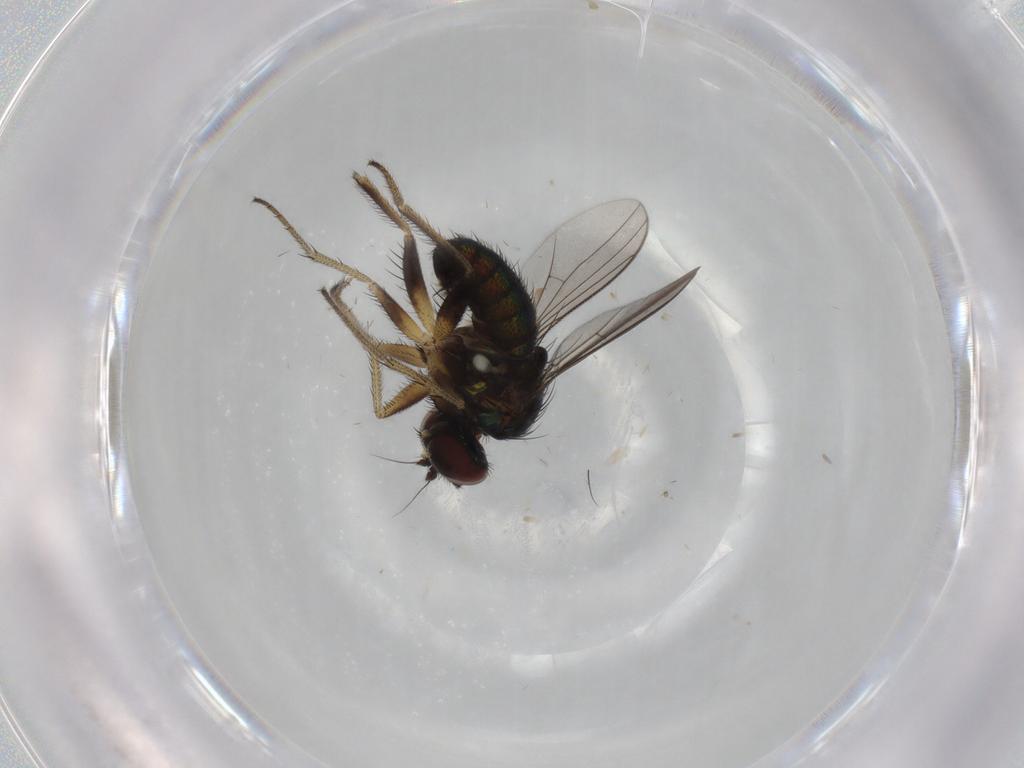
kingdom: Animalia
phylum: Arthropoda
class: Insecta
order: Diptera
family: Dolichopodidae
